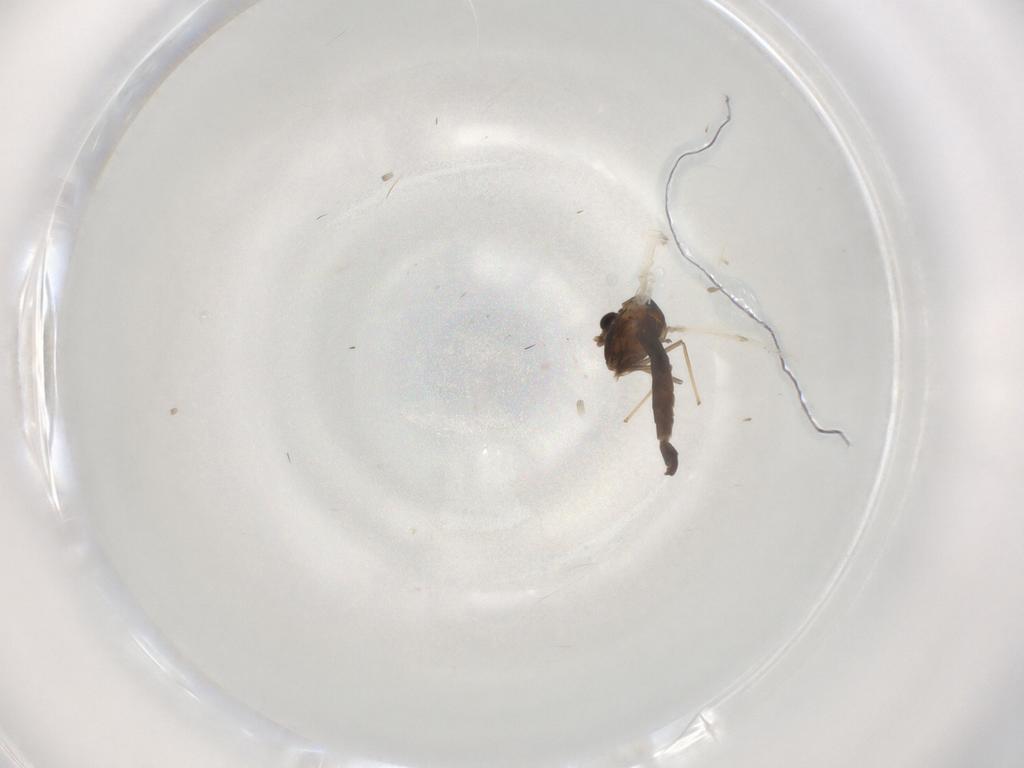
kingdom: Animalia
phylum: Arthropoda
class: Insecta
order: Diptera
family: Chironomidae
